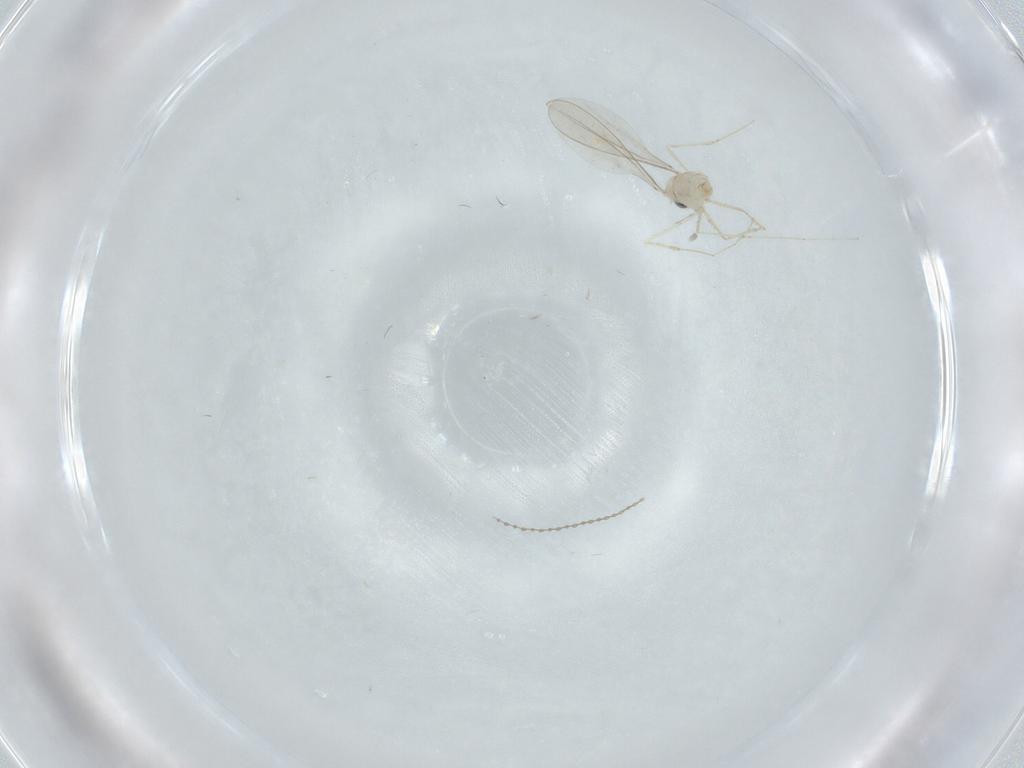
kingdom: Animalia
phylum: Arthropoda
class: Insecta
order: Diptera
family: Cecidomyiidae
